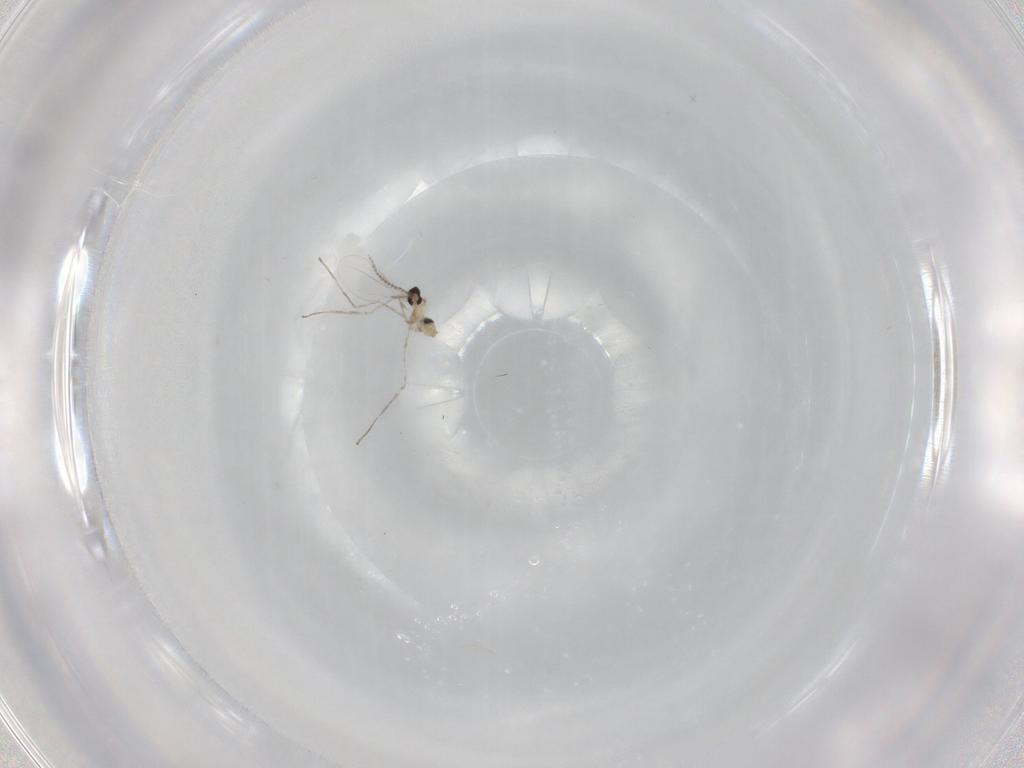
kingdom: Animalia
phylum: Arthropoda
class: Insecta
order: Diptera
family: Cecidomyiidae
